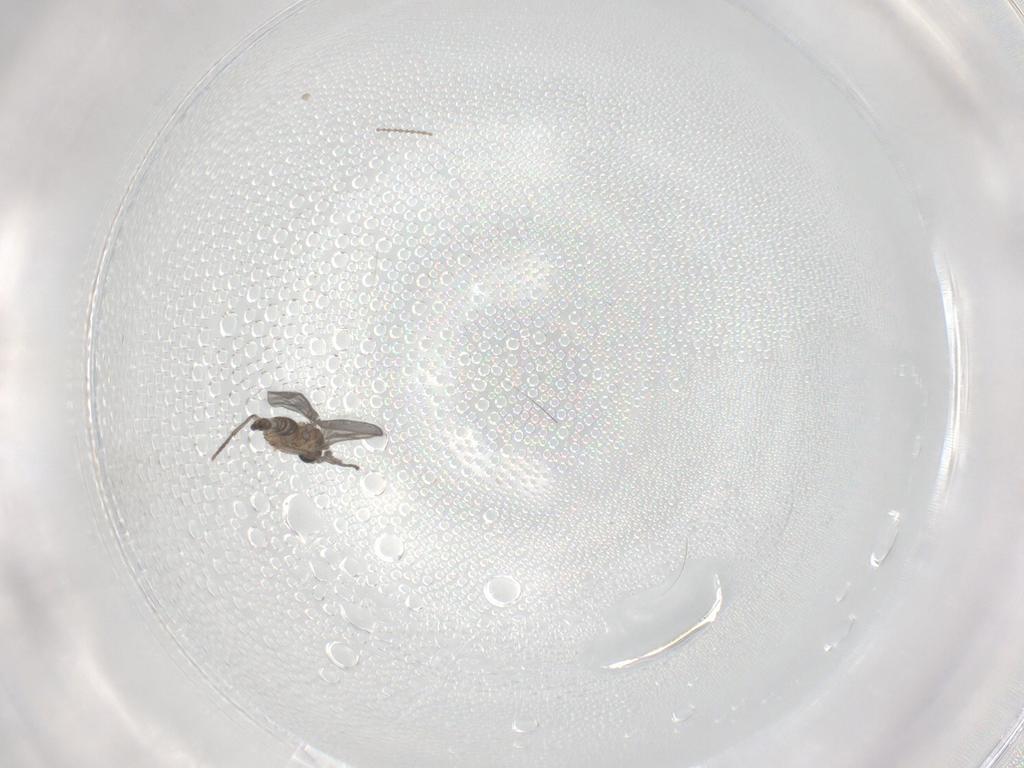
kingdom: Animalia
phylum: Arthropoda
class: Insecta
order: Diptera
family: Sciaridae
